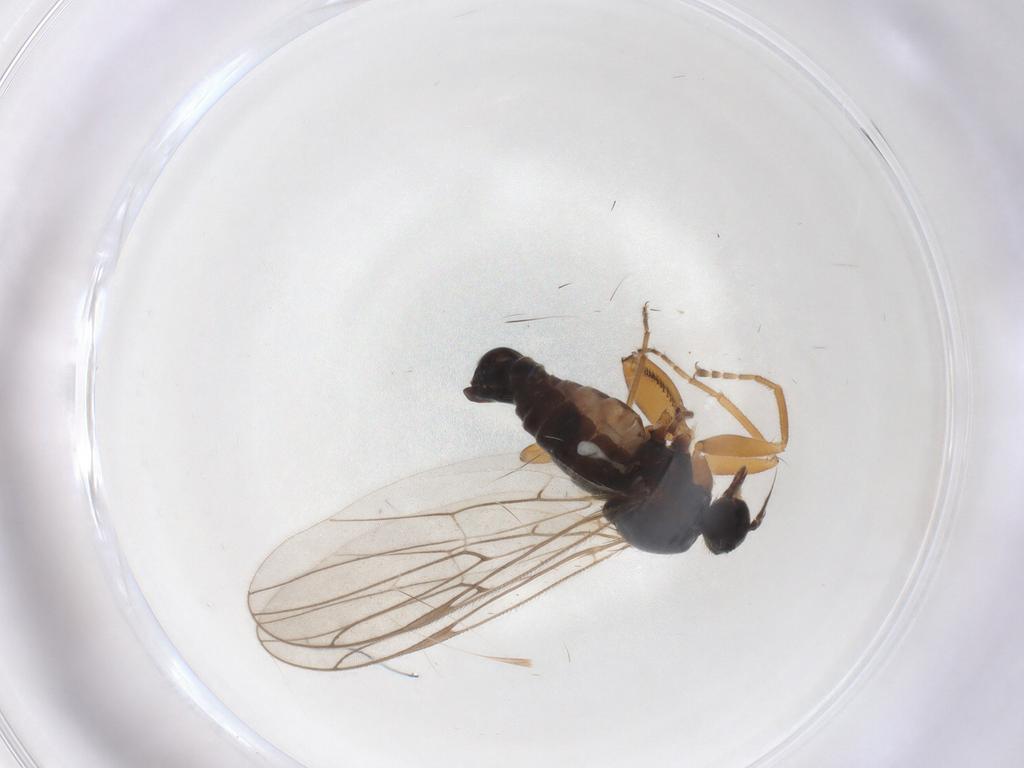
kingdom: Animalia
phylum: Arthropoda
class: Insecta
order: Diptera
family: Hybotidae
